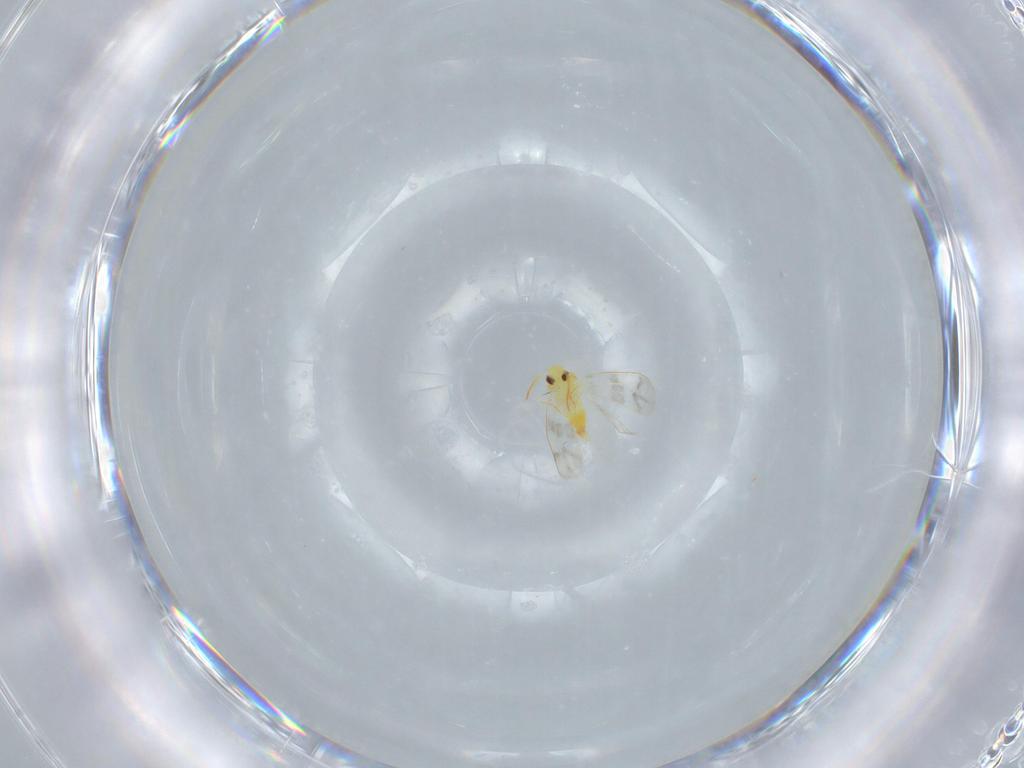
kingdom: Animalia
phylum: Arthropoda
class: Insecta
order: Hemiptera
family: Aleyrodidae
